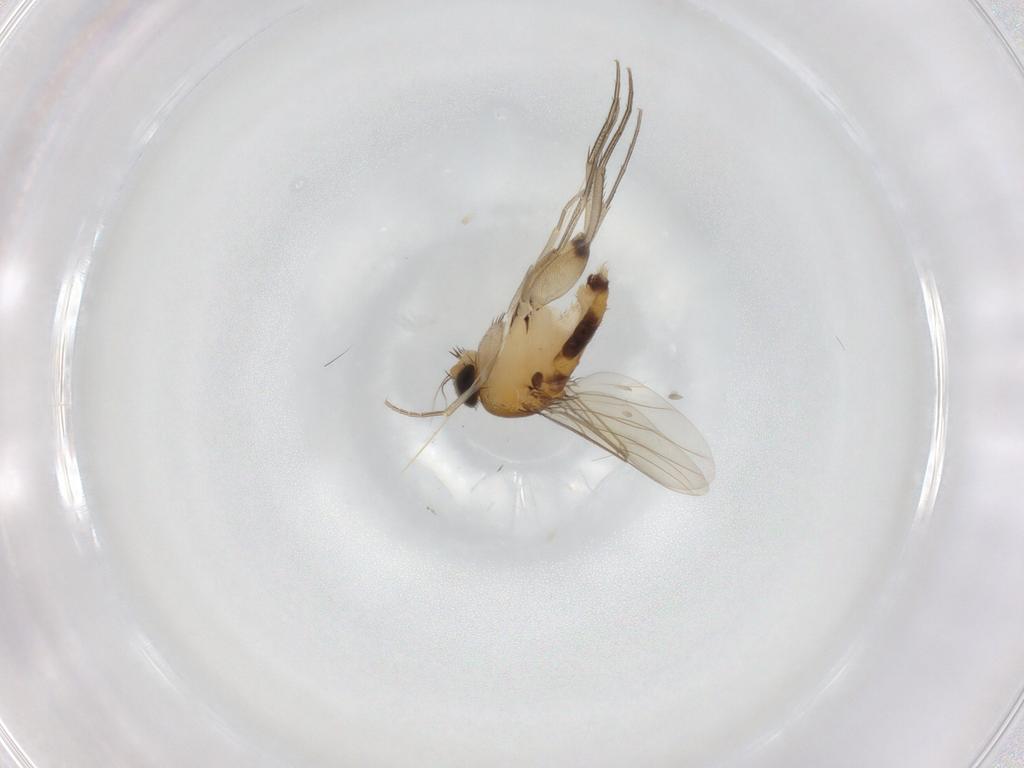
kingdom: Animalia
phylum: Arthropoda
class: Insecta
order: Diptera
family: Phoridae
